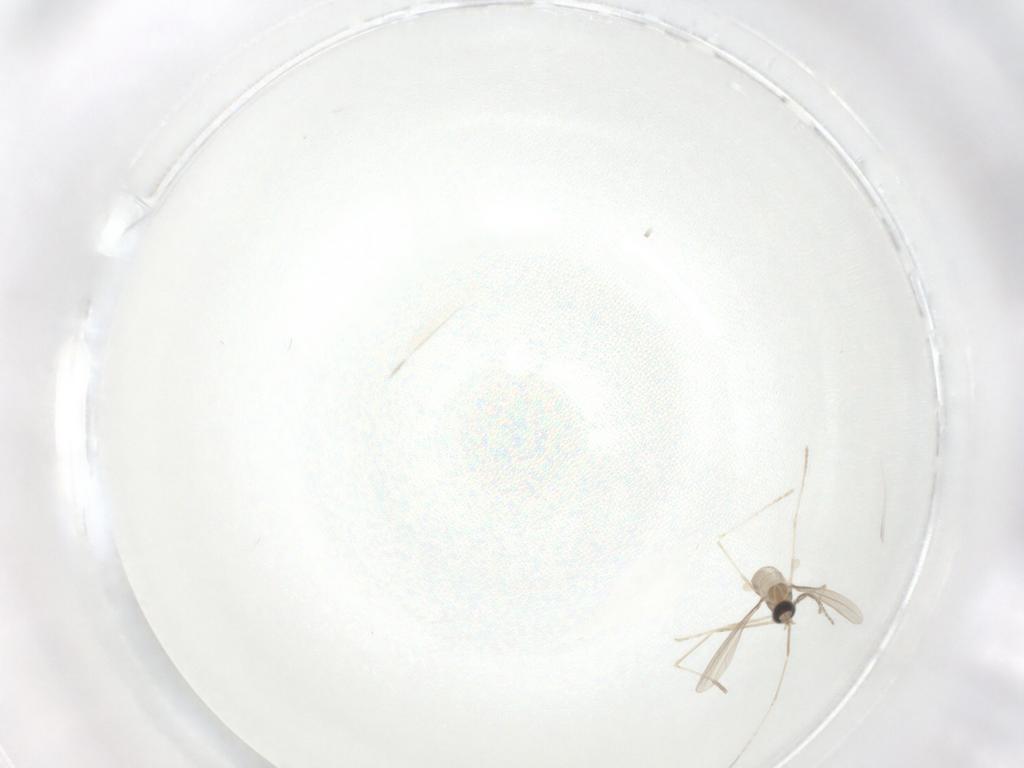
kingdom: Animalia
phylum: Arthropoda
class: Insecta
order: Diptera
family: Cecidomyiidae
